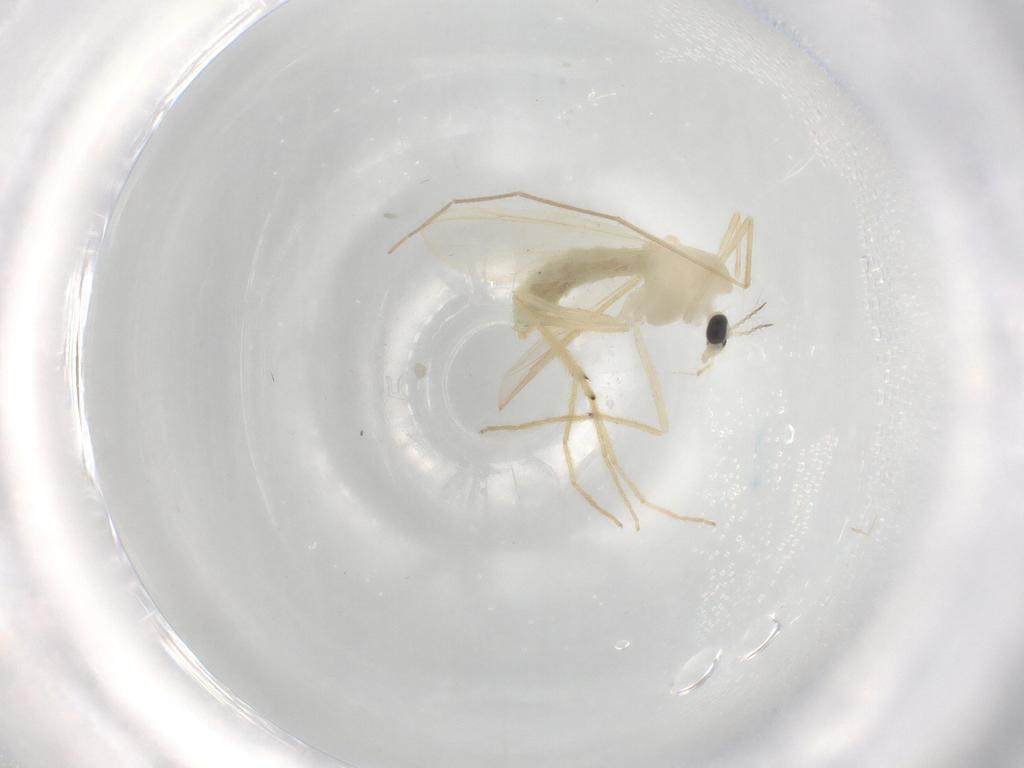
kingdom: Animalia
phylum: Arthropoda
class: Insecta
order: Diptera
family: Chironomidae
